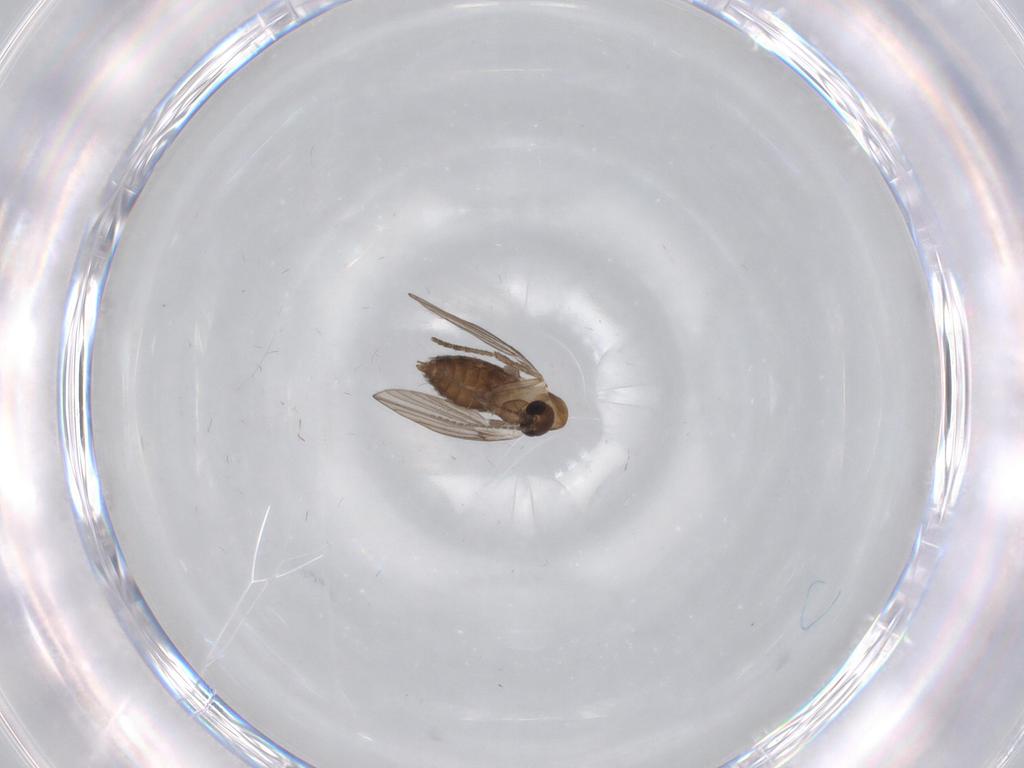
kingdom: Animalia
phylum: Arthropoda
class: Insecta
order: Diptera
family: Psychodidae
